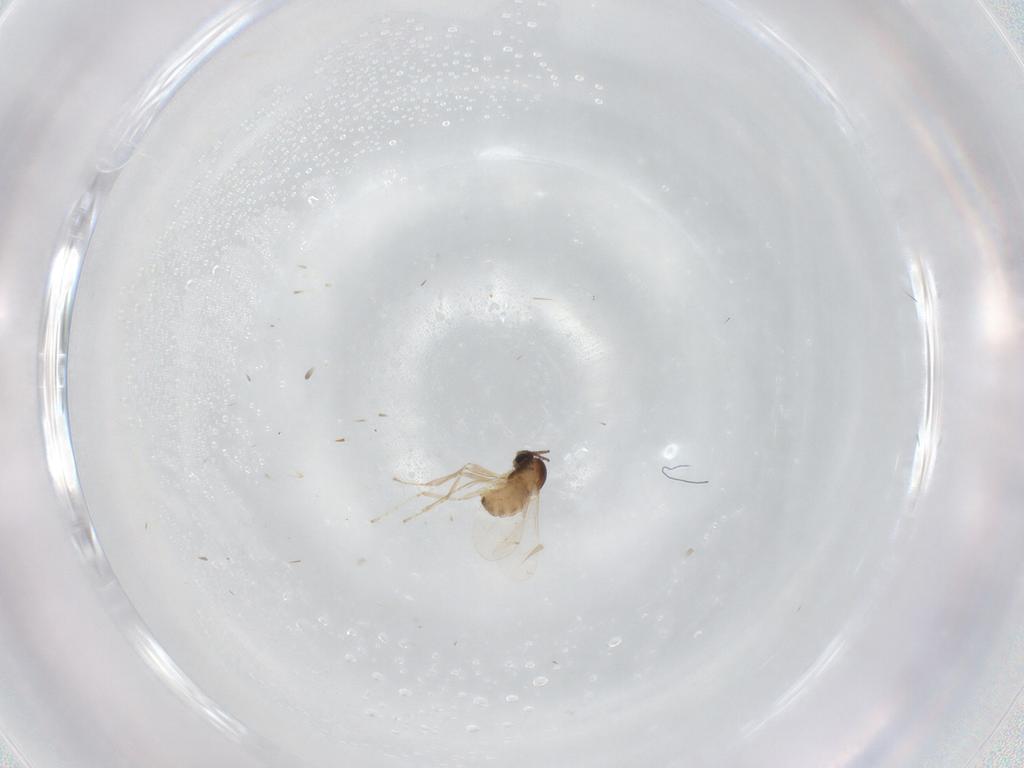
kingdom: Animalia
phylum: Arthropoda
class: Insecta
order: Diptera
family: Cecidomyiidae
